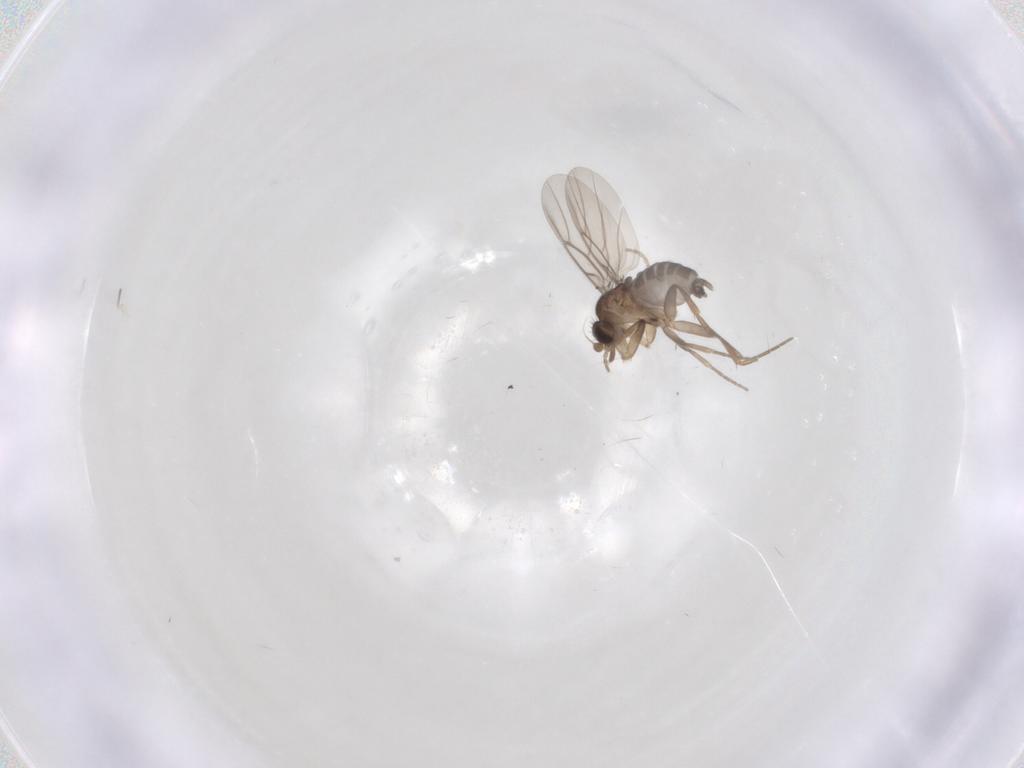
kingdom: Animalia
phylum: Arthropoda
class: Insecta
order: Diptera
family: Phoridae
